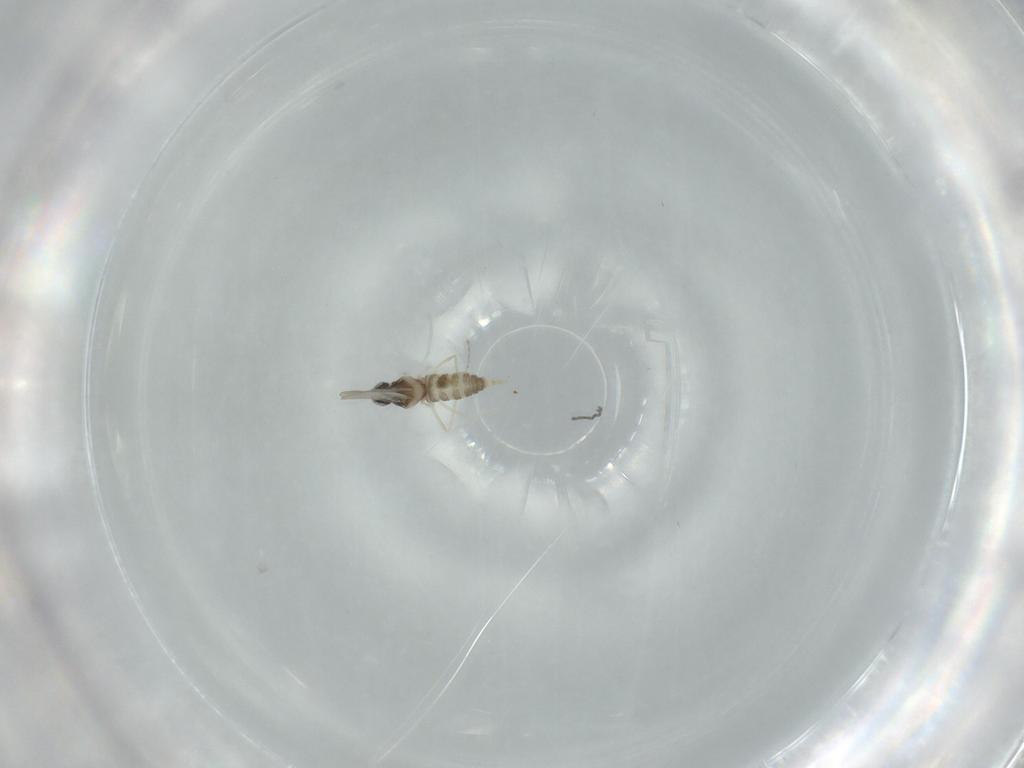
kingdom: Animalia
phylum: Arthropoda
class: Insecta
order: Diptera
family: Cecidomyiidae
